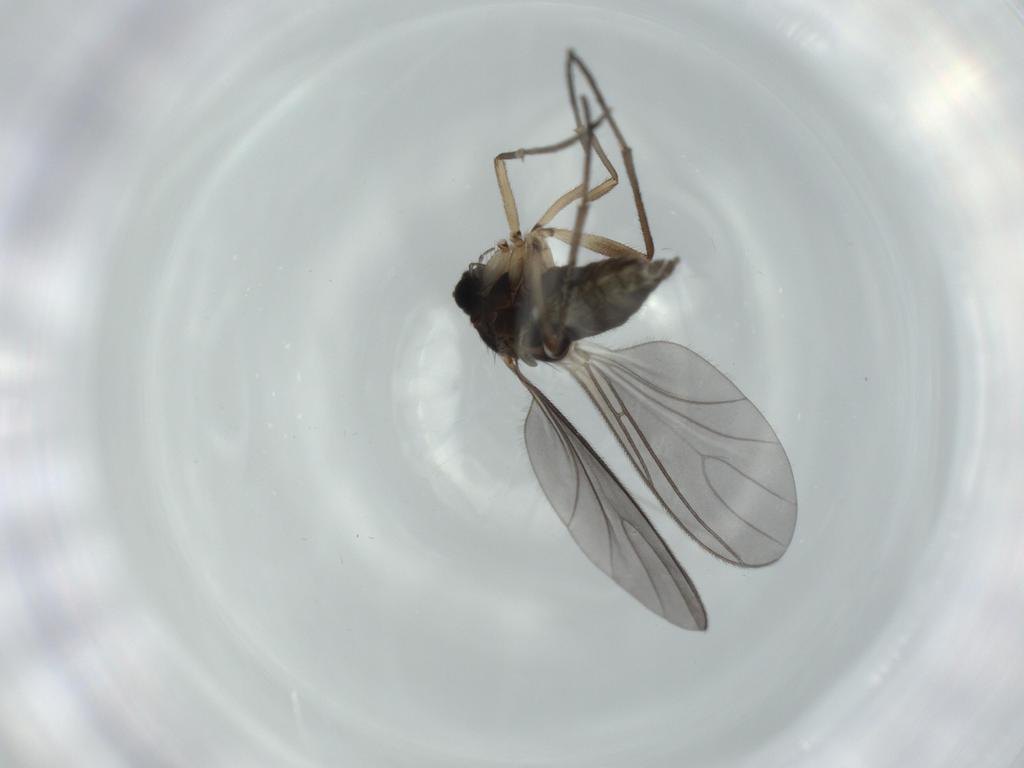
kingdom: Animalia
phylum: Arthropoda
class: Insecta
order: Diptera
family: Sciaridae
